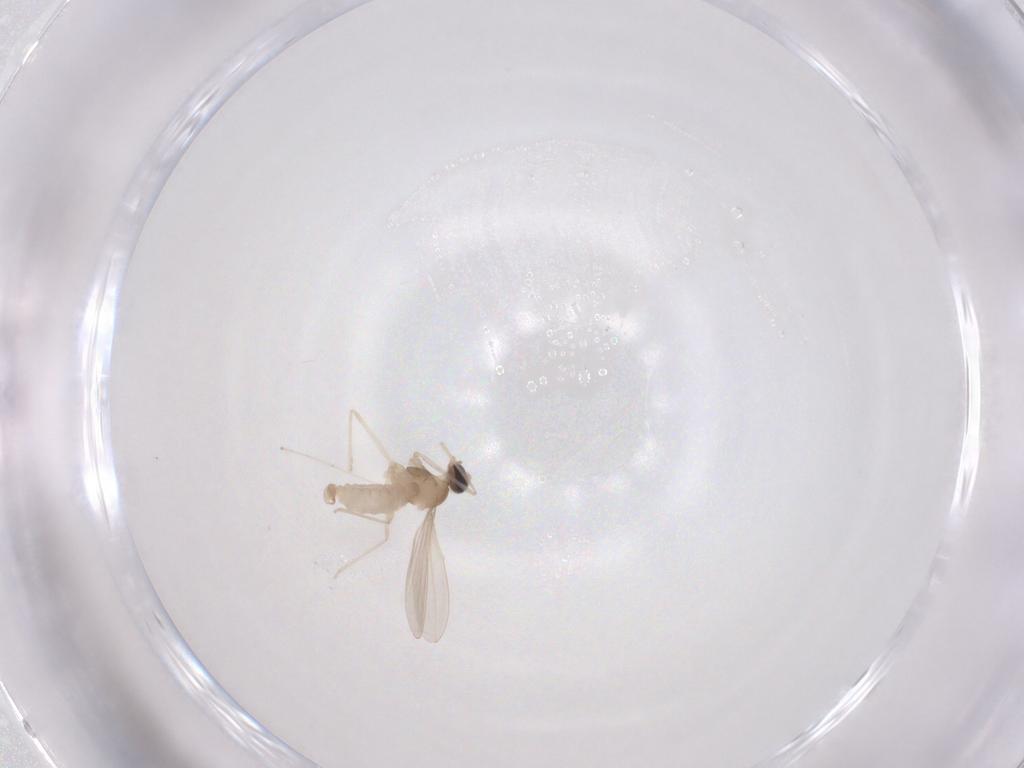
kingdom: Animalia
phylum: Arthropoda
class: Insecta
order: Diptera
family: Cecidomyiidae
